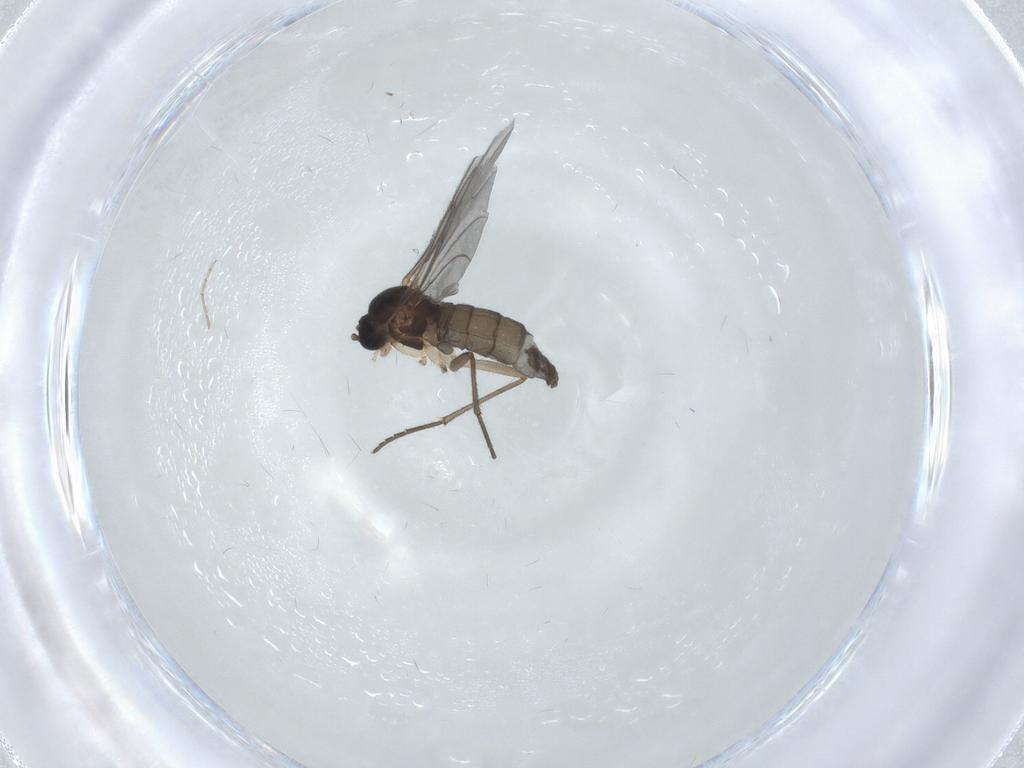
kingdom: Animalia
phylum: Arthropoda
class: Insecta
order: Diptera
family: Sciaridae
